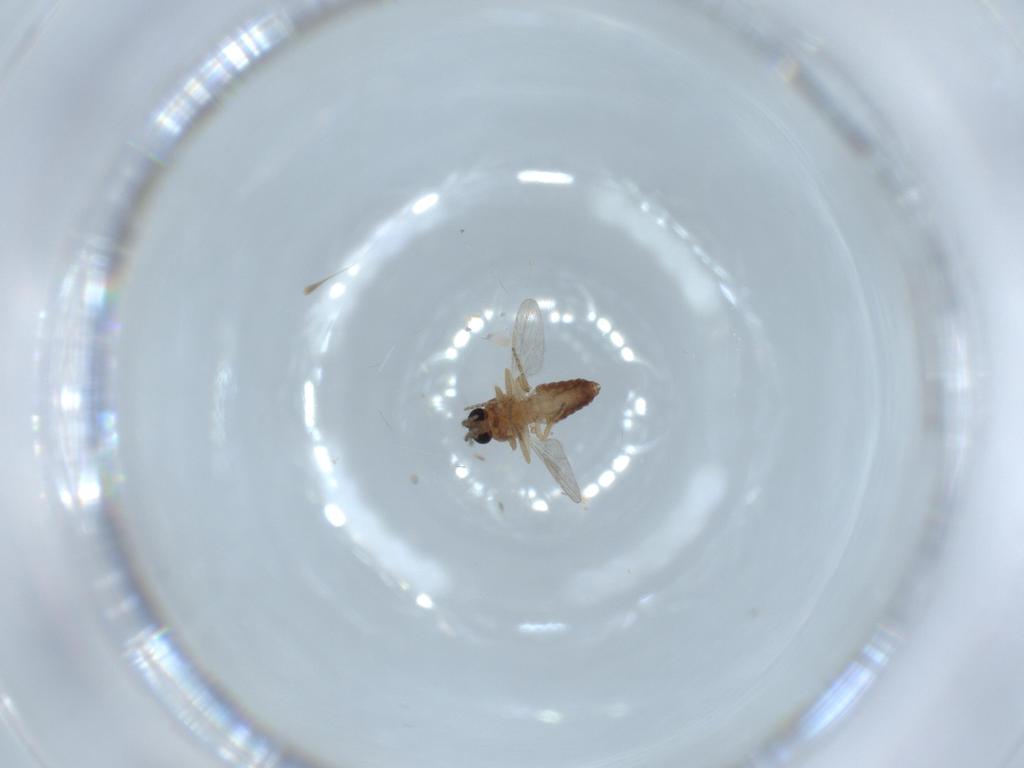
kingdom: Animalia
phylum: Arthropoda
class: Insecta
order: Diptera
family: Ceratopogonidae
